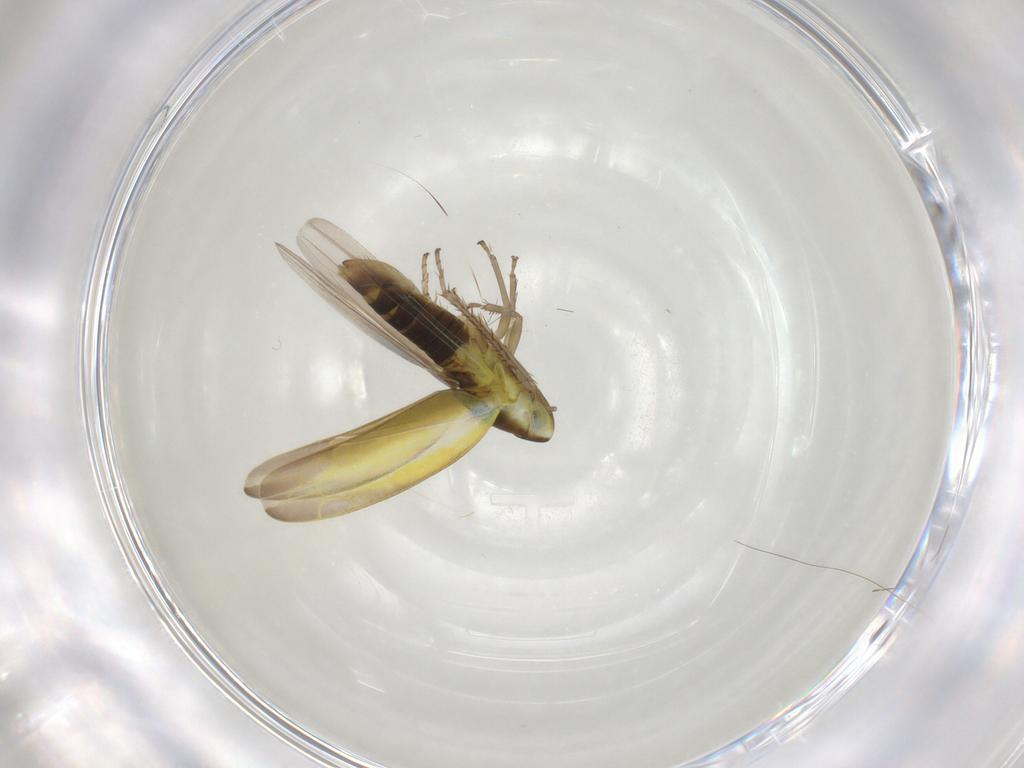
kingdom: Animalia
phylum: Arthropoda
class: Insecta
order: Hemiptera
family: Cicadellidae
